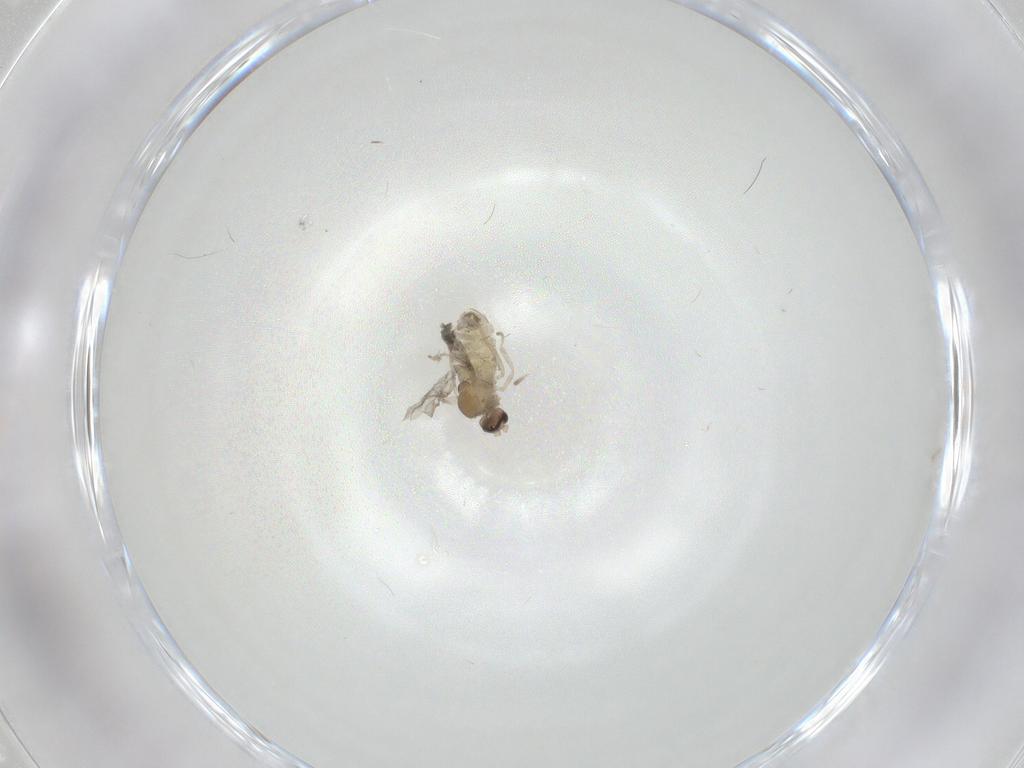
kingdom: Animalia
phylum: Arthropoda
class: Insecta
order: Diptera
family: Cecidomyiidae
